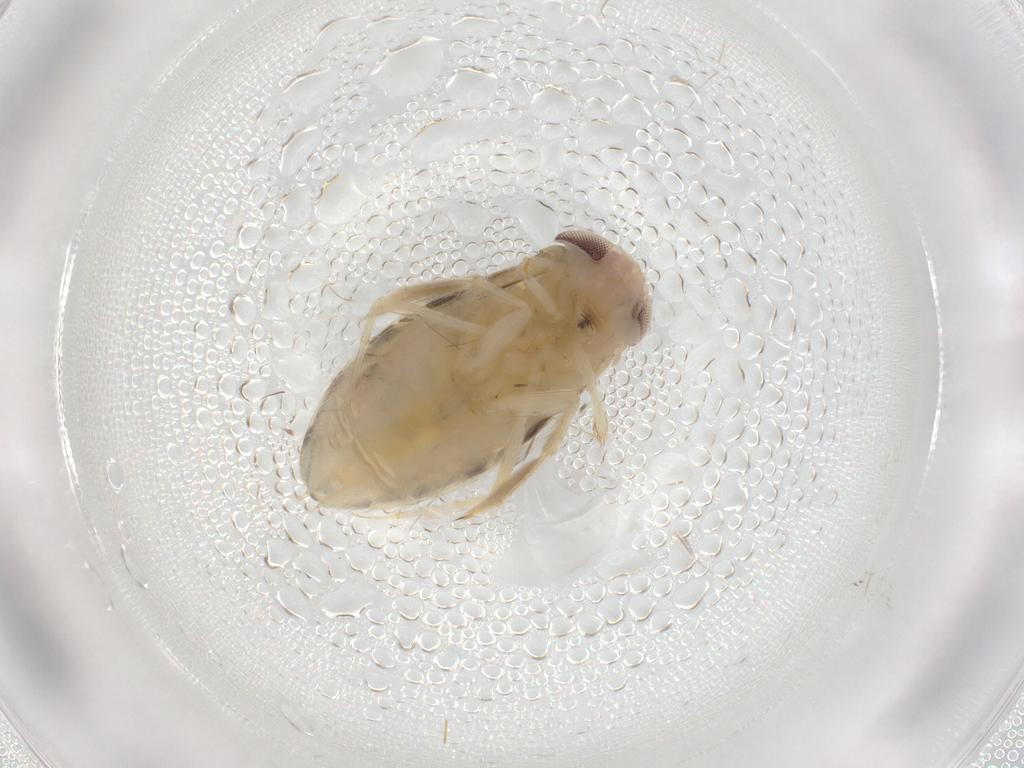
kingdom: Animalia
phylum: Arthropoda
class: Insecta
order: Hemiptera
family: Corixidae
